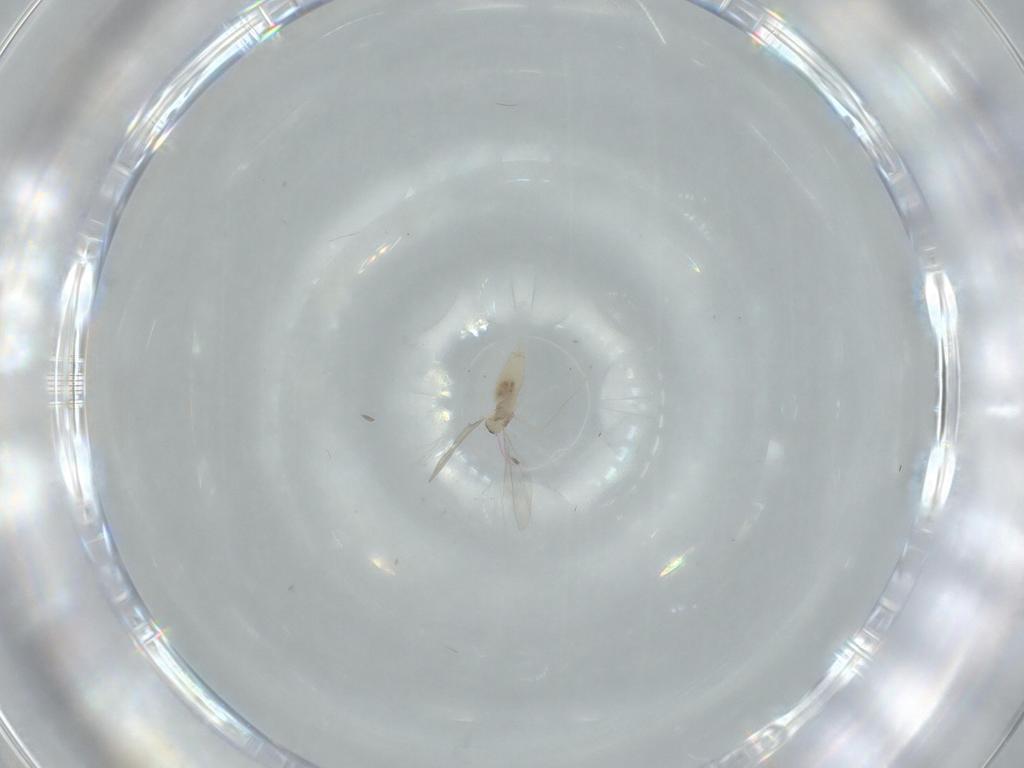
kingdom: Animalia
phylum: Arthropoda
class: Insecta
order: Diptera
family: Cecidomyiidae
